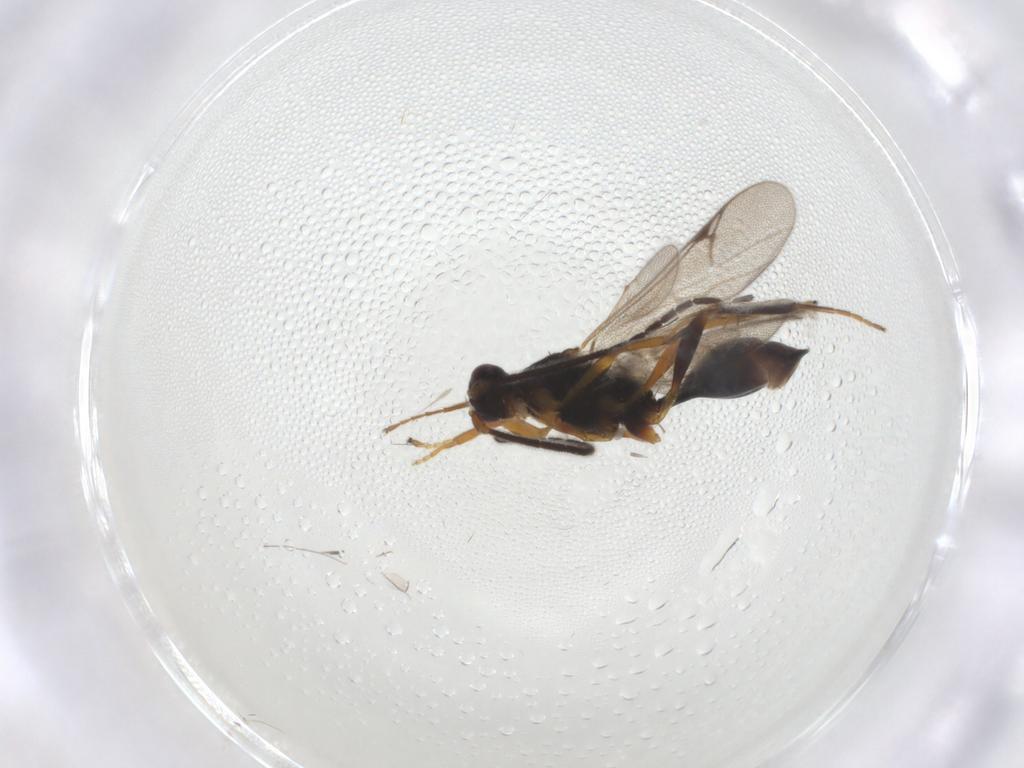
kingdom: Animalia
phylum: Arthropoda
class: Insecta
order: Hymenoptera
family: Proctotrupidae
